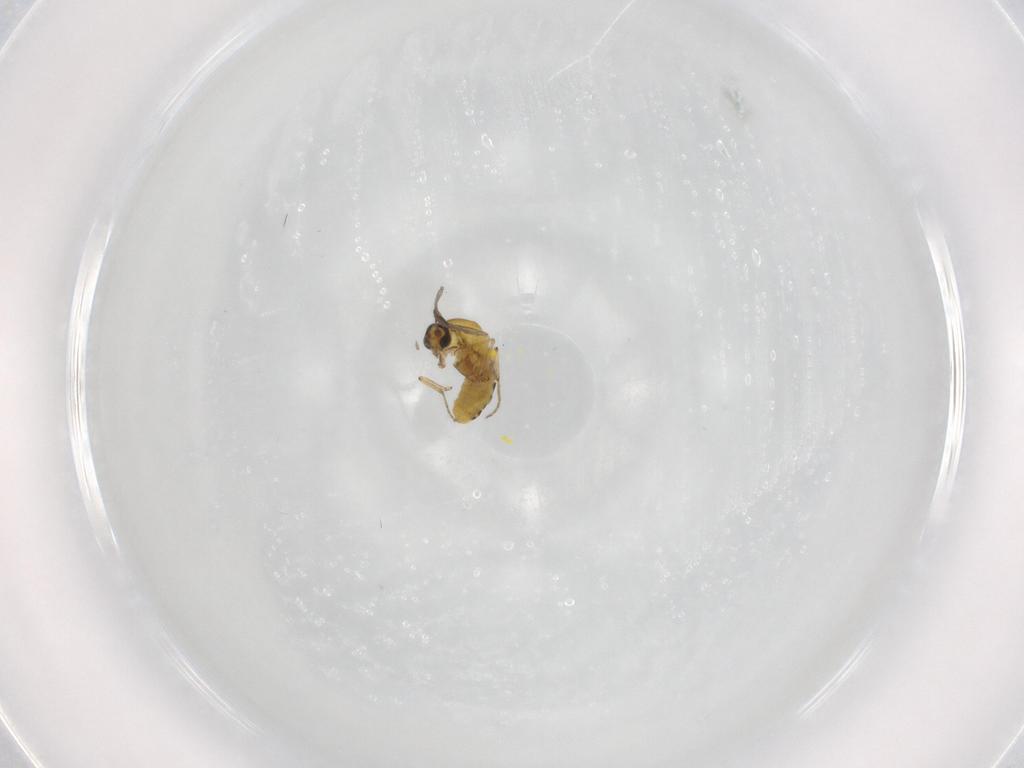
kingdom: Animalia
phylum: Arthropoda
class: Insecta
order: Diptera
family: Ceratopogonidae
